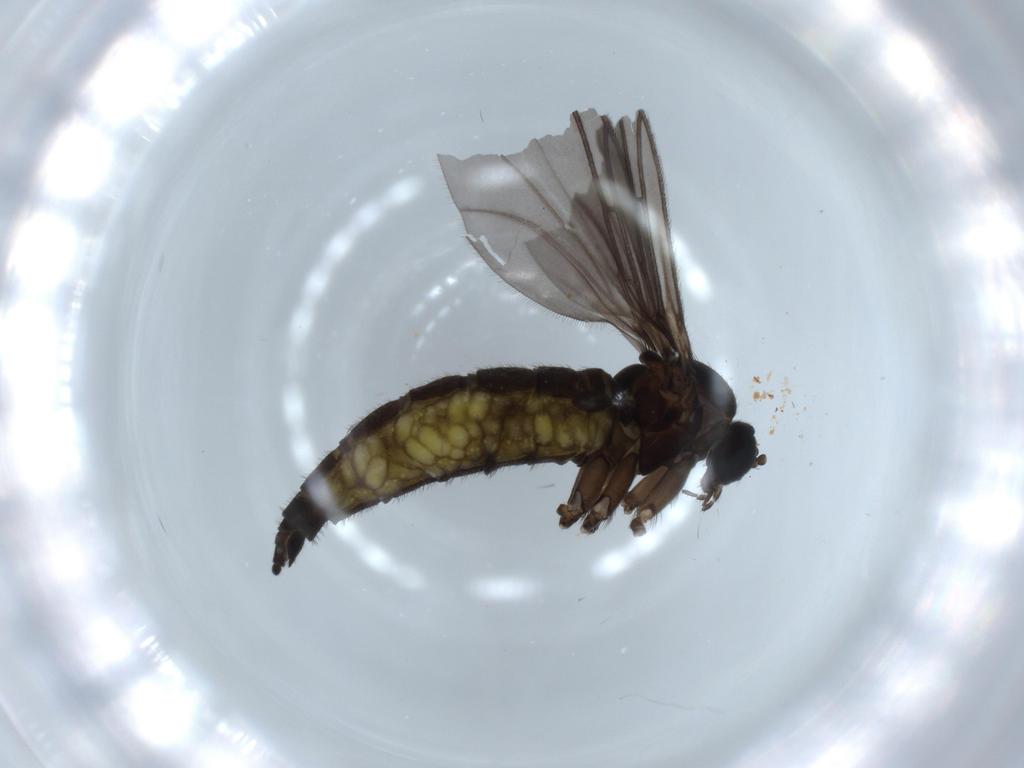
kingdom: Animalia
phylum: Arthropoda
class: Insecta
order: Diptera
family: Sciaridae
